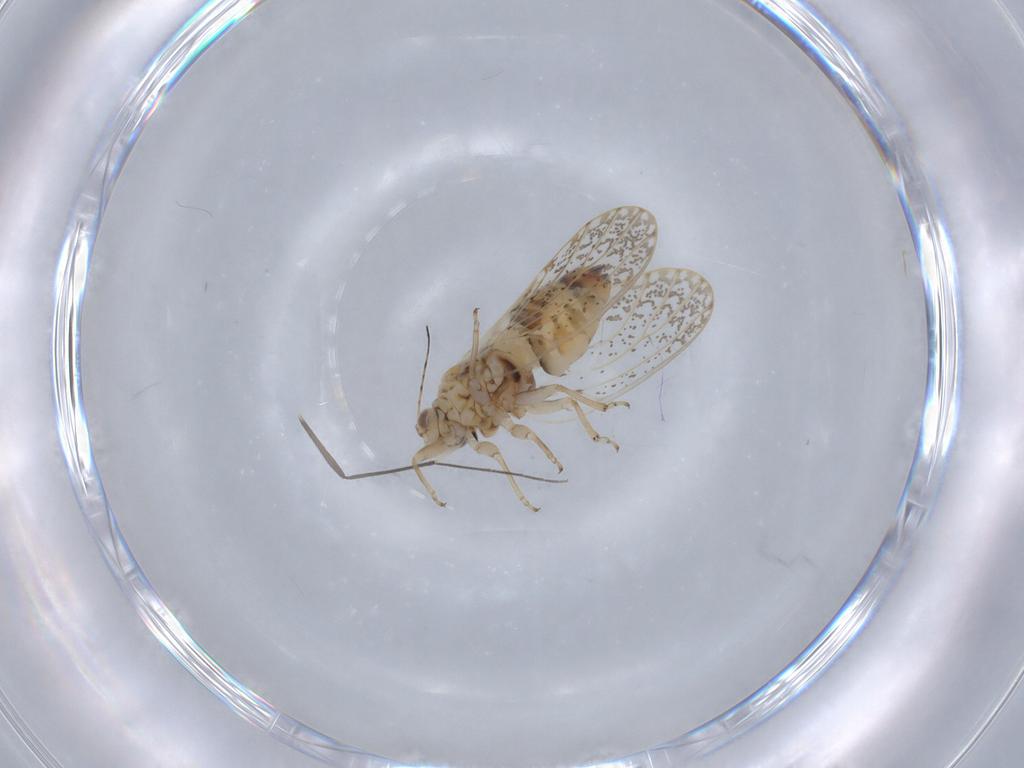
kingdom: Animalia
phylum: Arthropoda
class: Insecta
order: Hemiptera
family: Psyllidae
